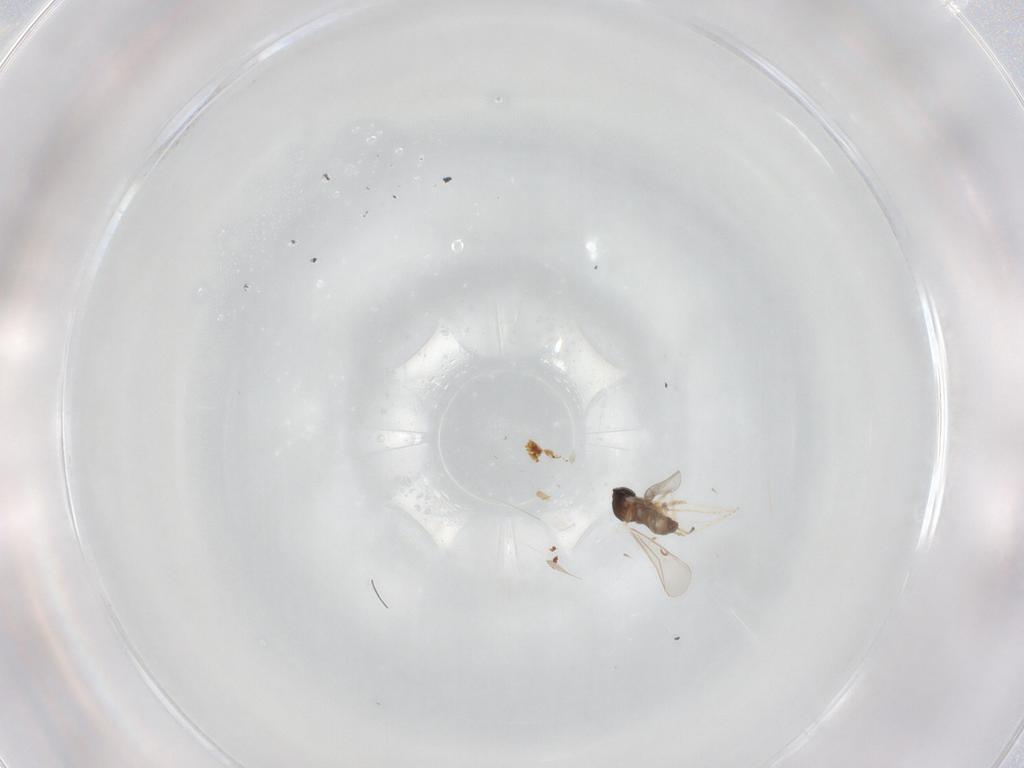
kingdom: Animalia
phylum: Arthropoda
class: Insecta
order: Diptera
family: Cecidomyiidae
